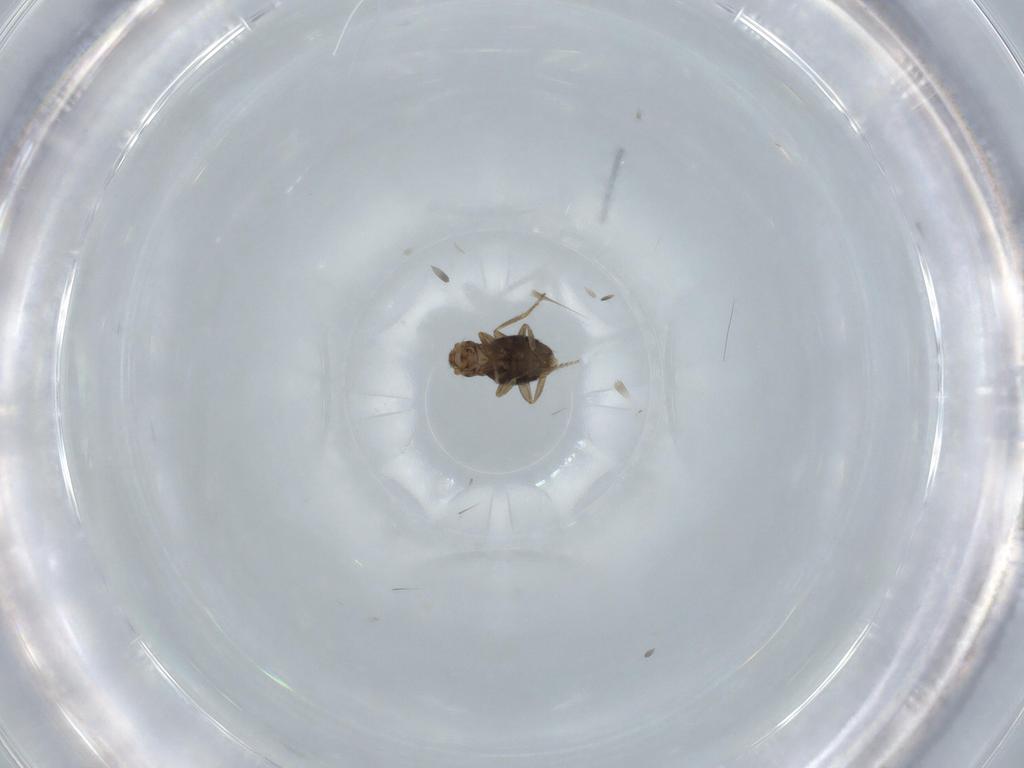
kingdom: Animalia
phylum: Arthropoda
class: Insecta
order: Diptera
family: Phoridae
